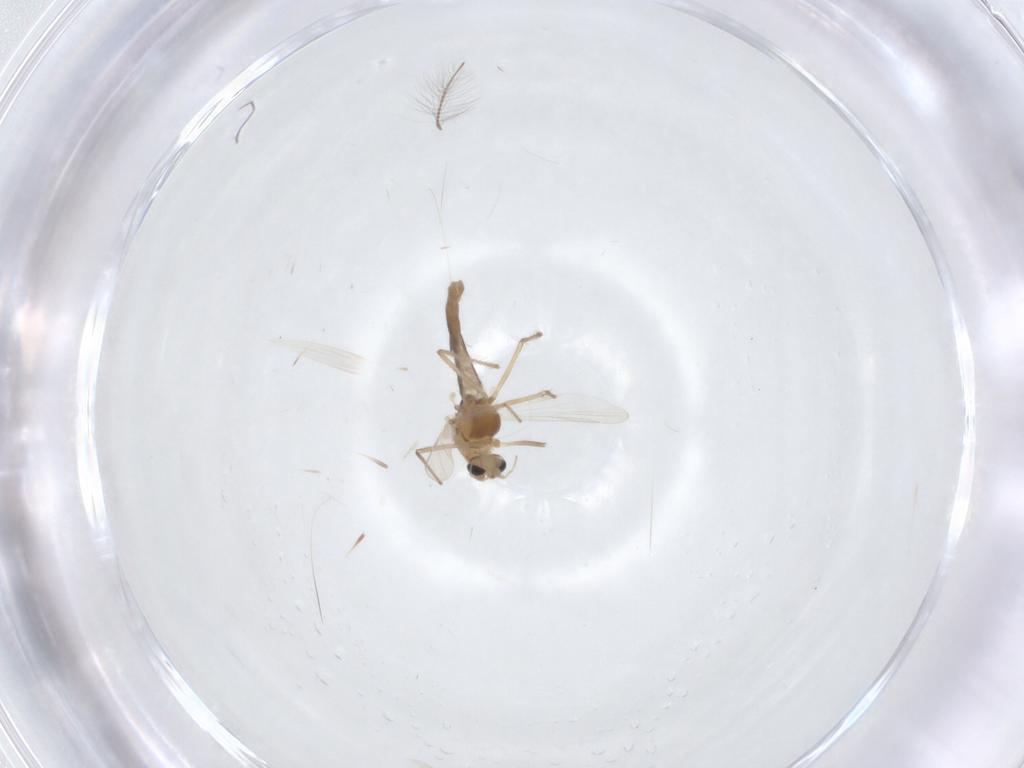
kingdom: Animalia
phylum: Arthropoda
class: Insecta
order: Diptera
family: Chironomidae
